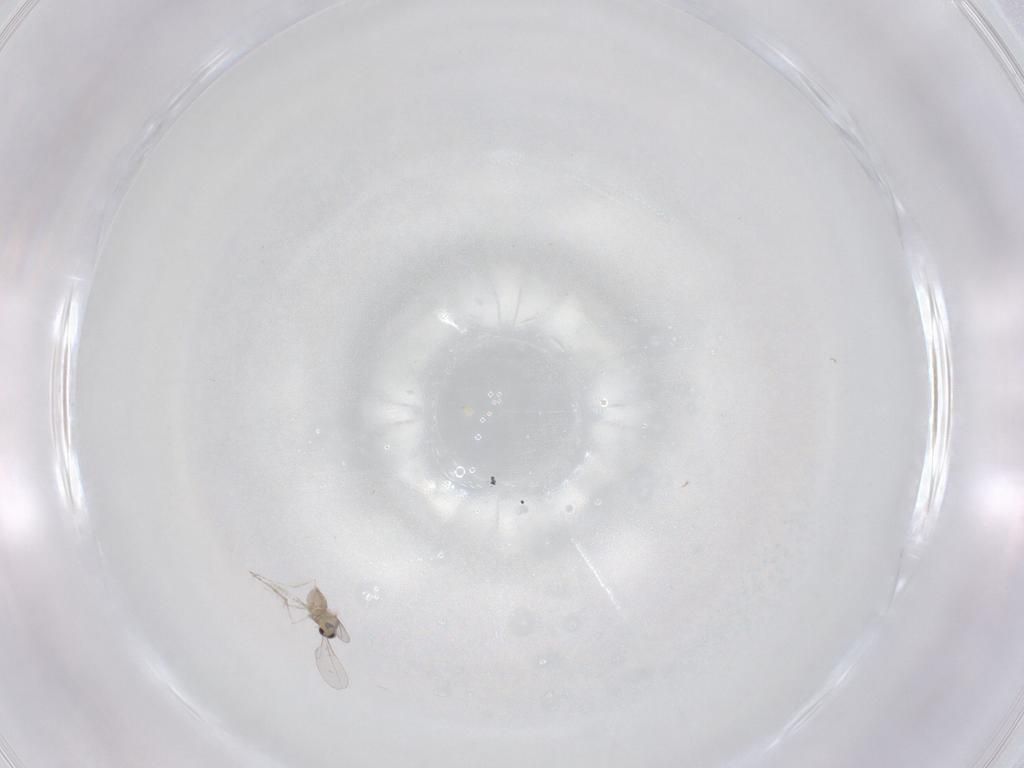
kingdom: Animalia
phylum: Arthropoda
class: Insecta
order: Diptera
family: Cecidomyiidae
